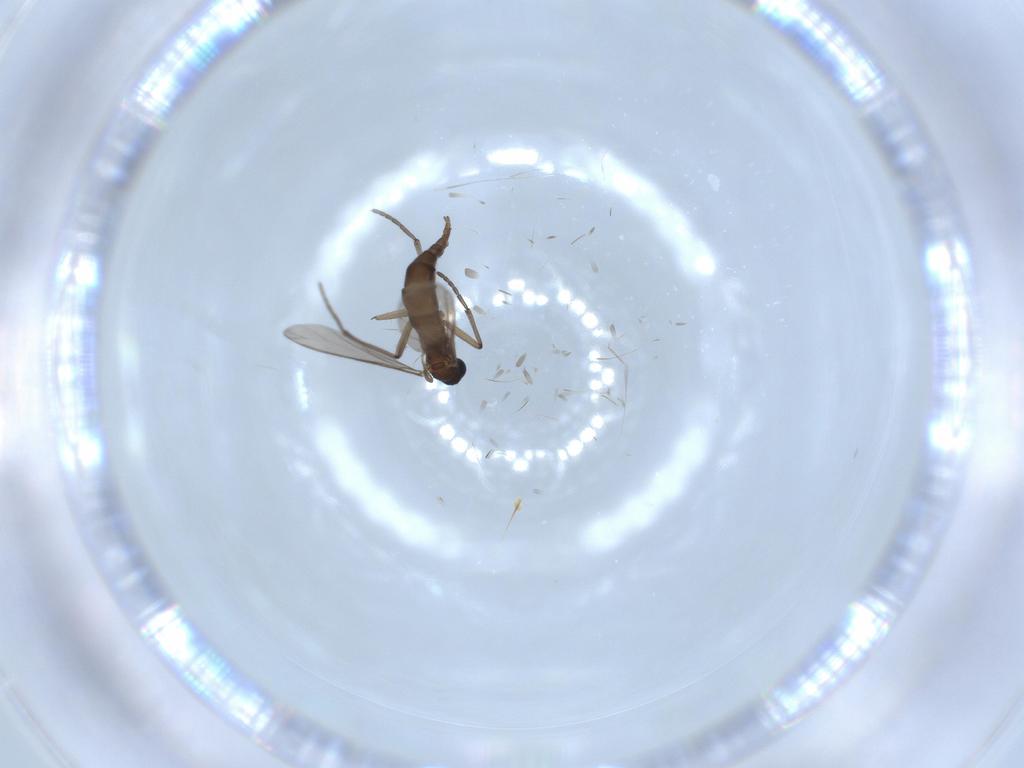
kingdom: Animalia
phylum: Arthropoda
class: Insecta
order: Diptera
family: Sciaridae
